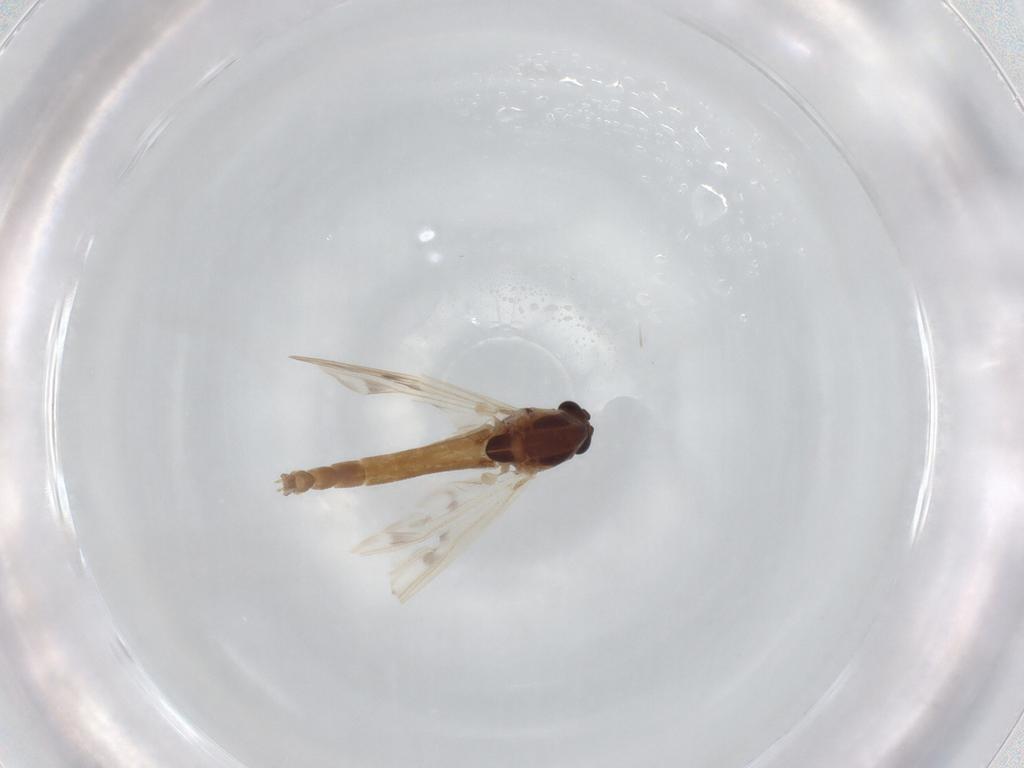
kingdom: Animalia
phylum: Arthropoda
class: Insecta
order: Diptera
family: Chironomidae
